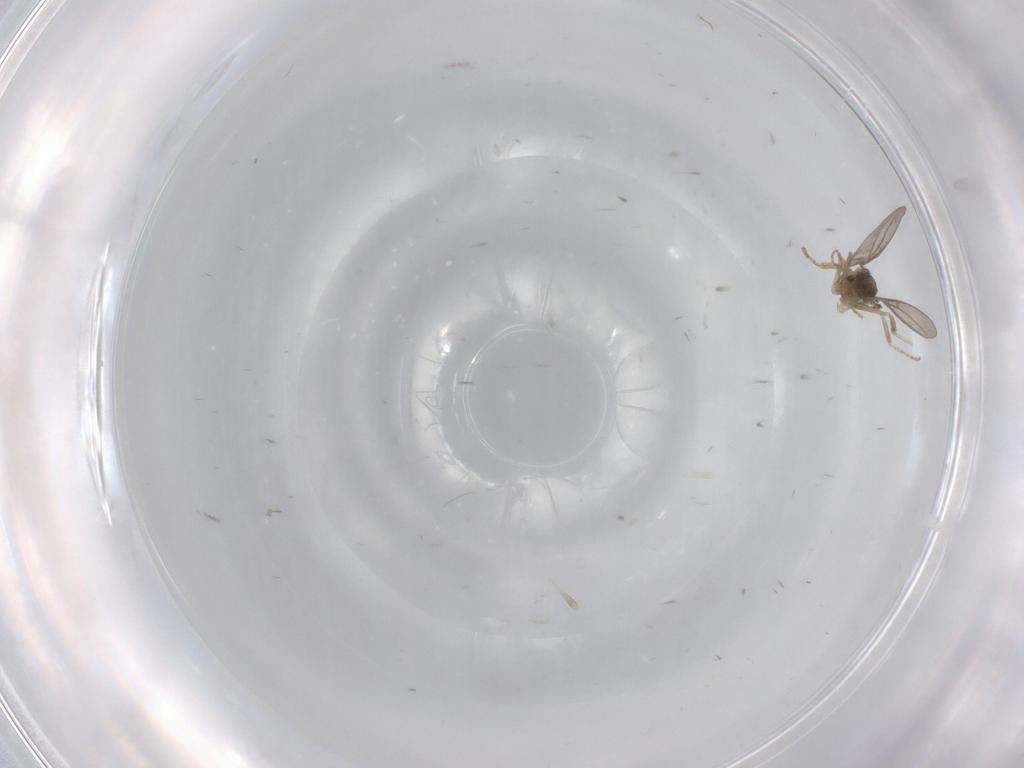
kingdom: Animalia
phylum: Arthropoda
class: Insecta
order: Diptera
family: Cecidomyiidae
